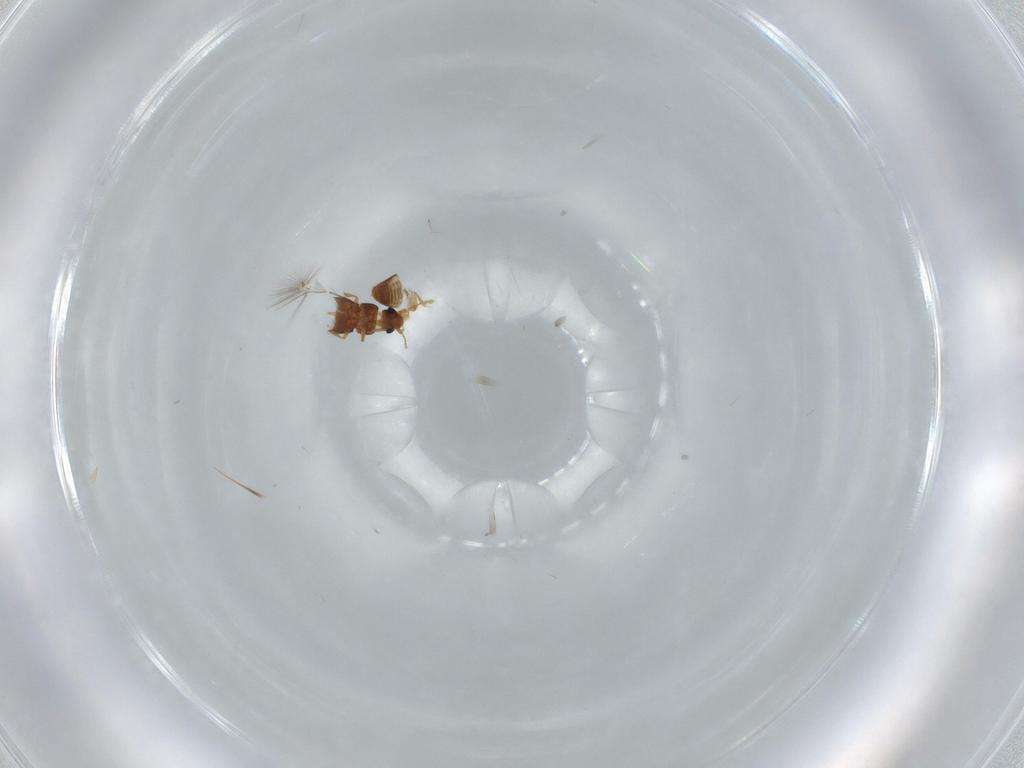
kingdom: Animalia
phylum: Arthropoda
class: Insecta
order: Coleoptera
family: Ptiliidae
